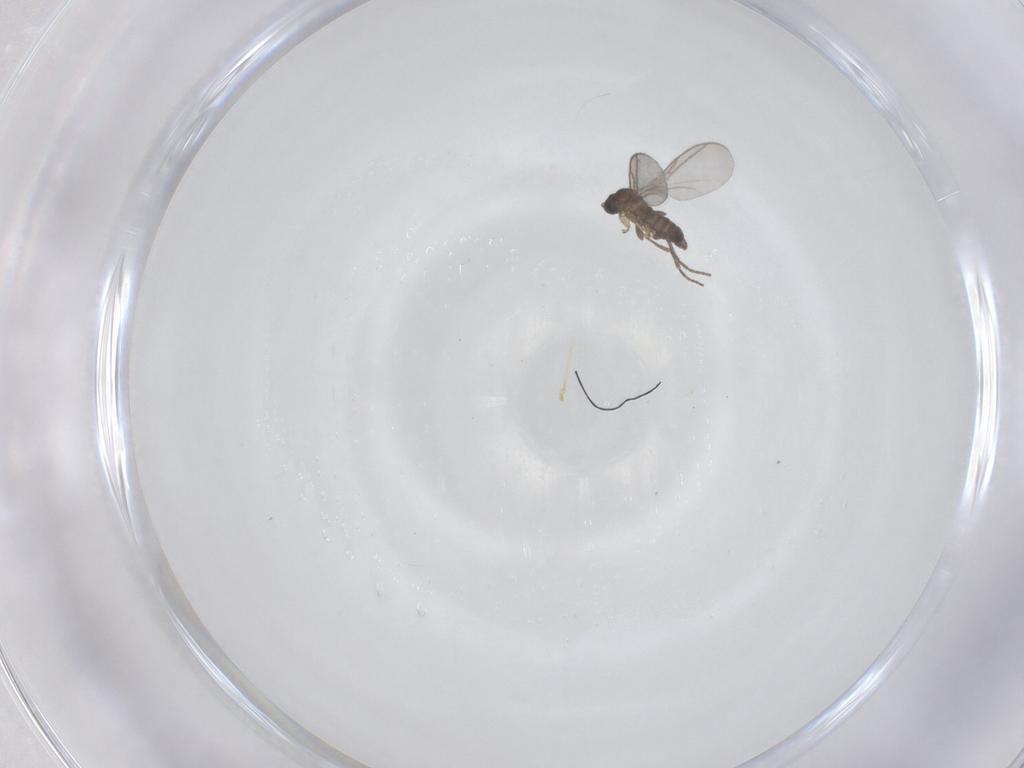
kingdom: Animalia
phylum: Arthropoda
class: Insecta
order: Diptera
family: Sciaridae
